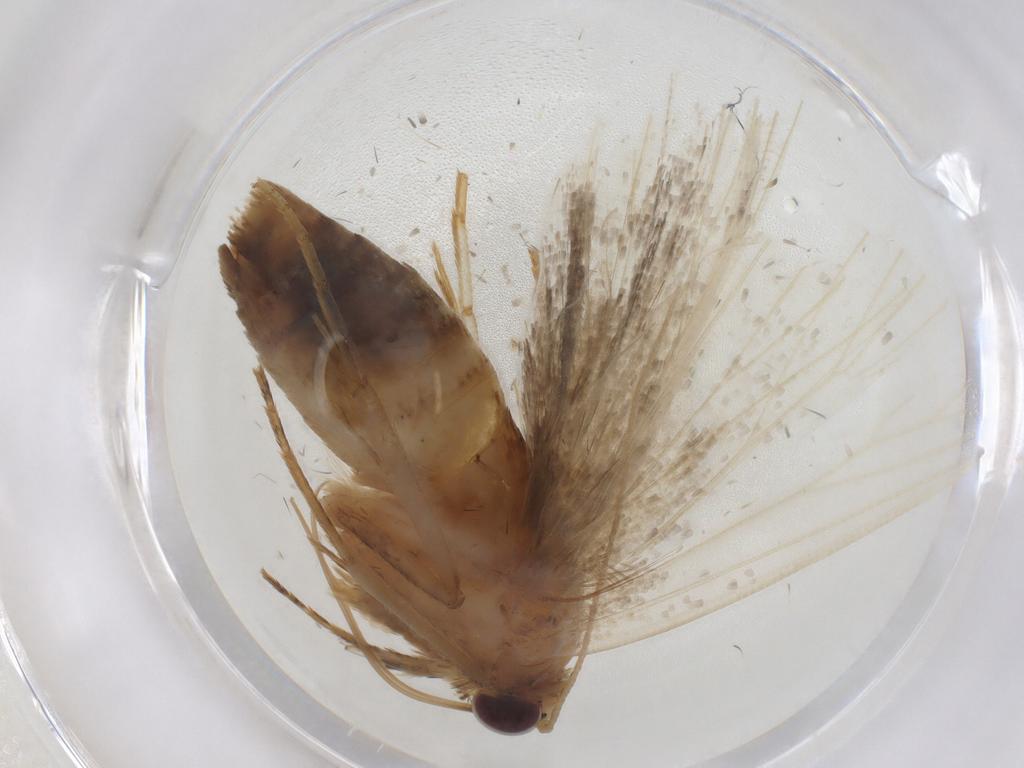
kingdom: Animalia
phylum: Arthropoda
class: Insecta
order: Lepidoptera
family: Erebidae
